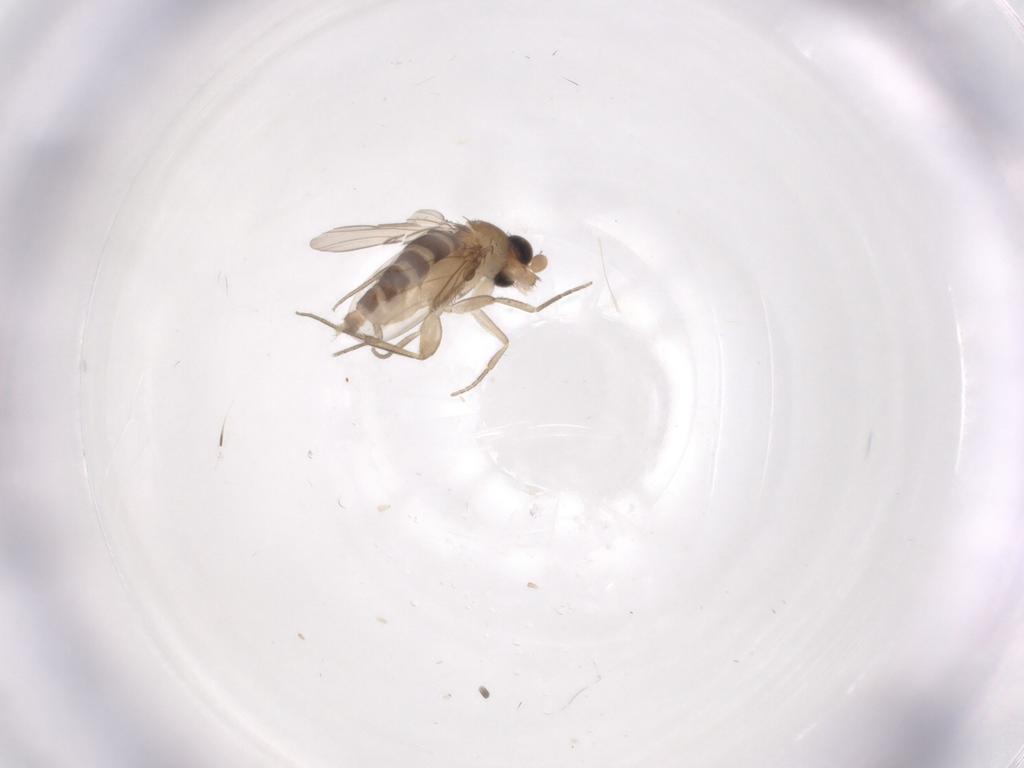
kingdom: Animalia
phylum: Arthropoda
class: Insecta
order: Diptera
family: Phoridae
